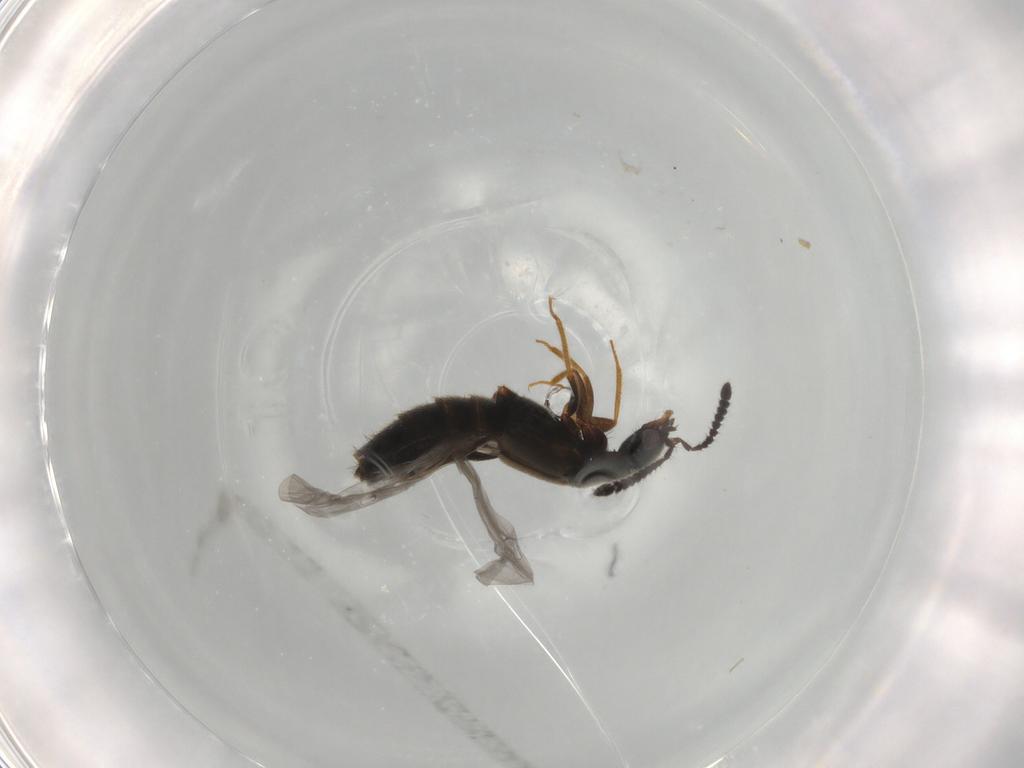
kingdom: Animalia
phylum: Arthropoda
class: Insecta
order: Coleoptera
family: Staphylinidae
